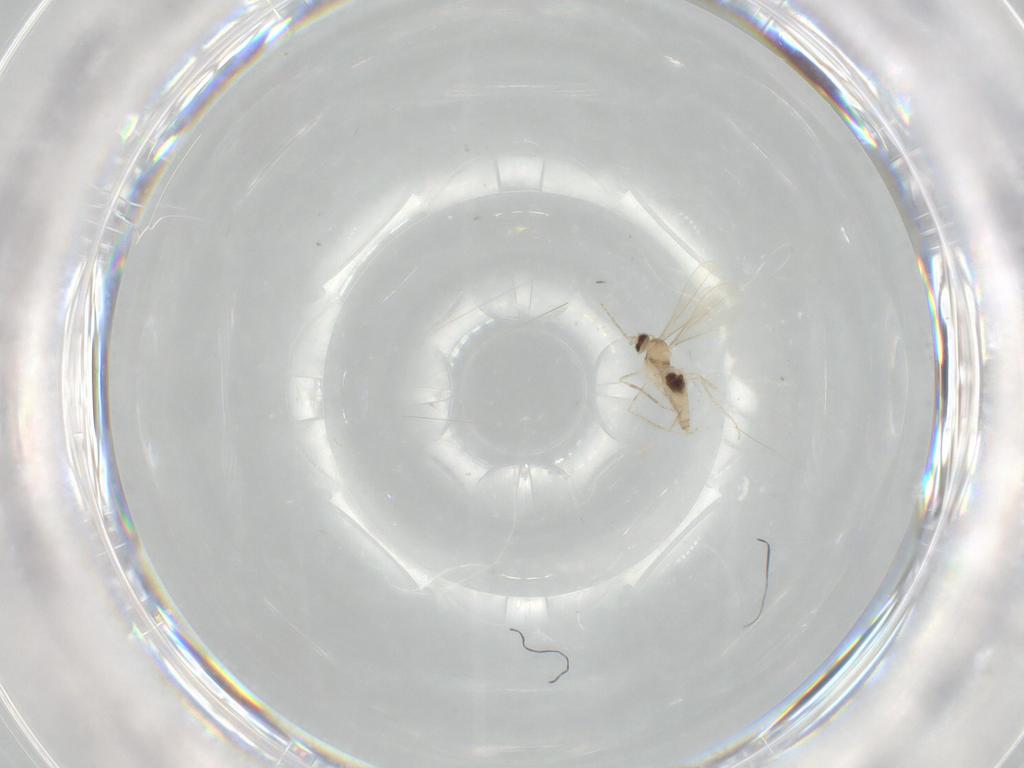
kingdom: Animalia
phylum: Arthropoda
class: Insecta
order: Diptera
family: Cecidomyiidae
